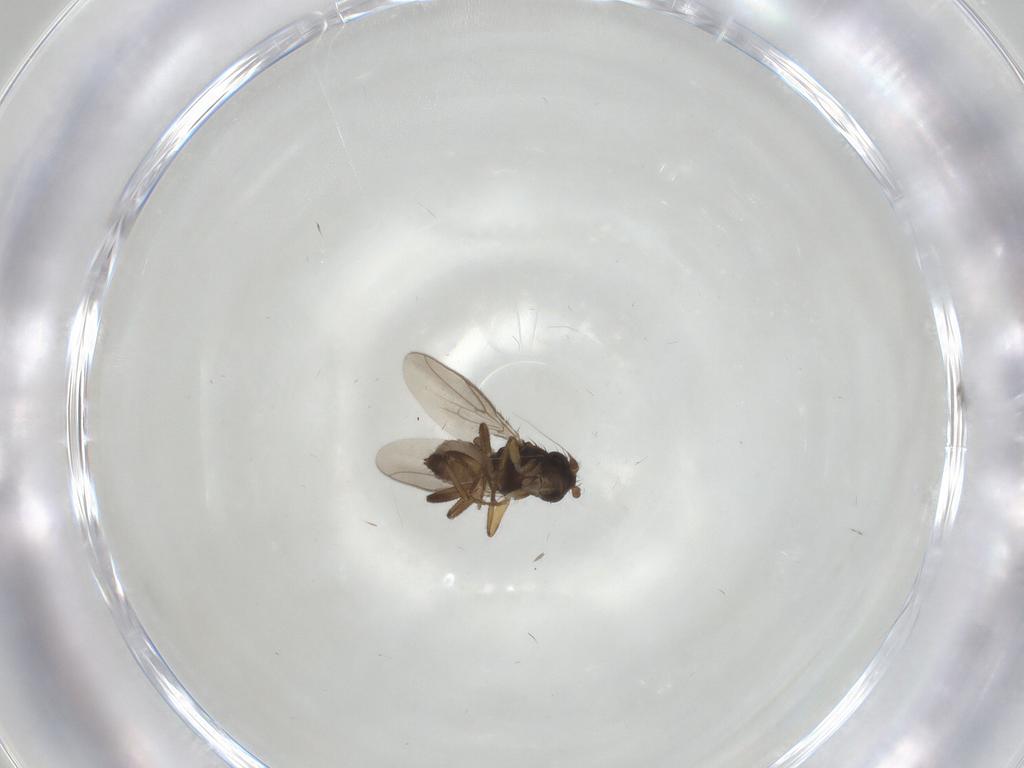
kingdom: Animalia
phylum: Arthropoda
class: Insecta
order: Diptera
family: Sphaeroceridae
